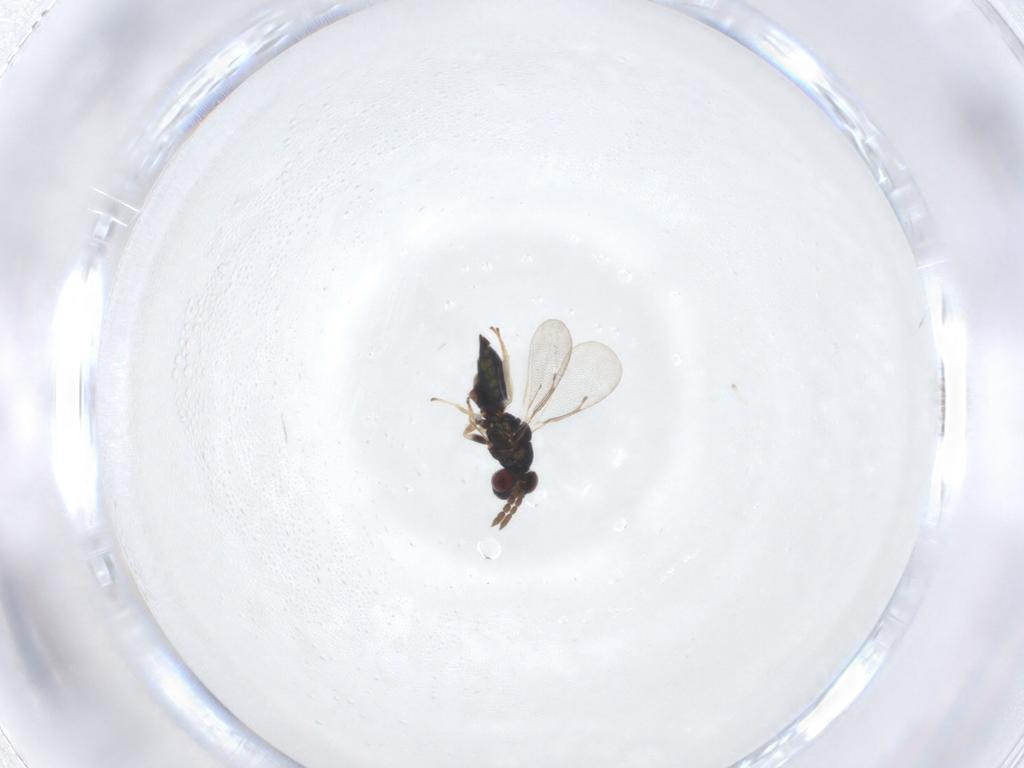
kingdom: Animalia
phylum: Arthropoda
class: Insecta
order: Hymenoptera
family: Eulophidae
